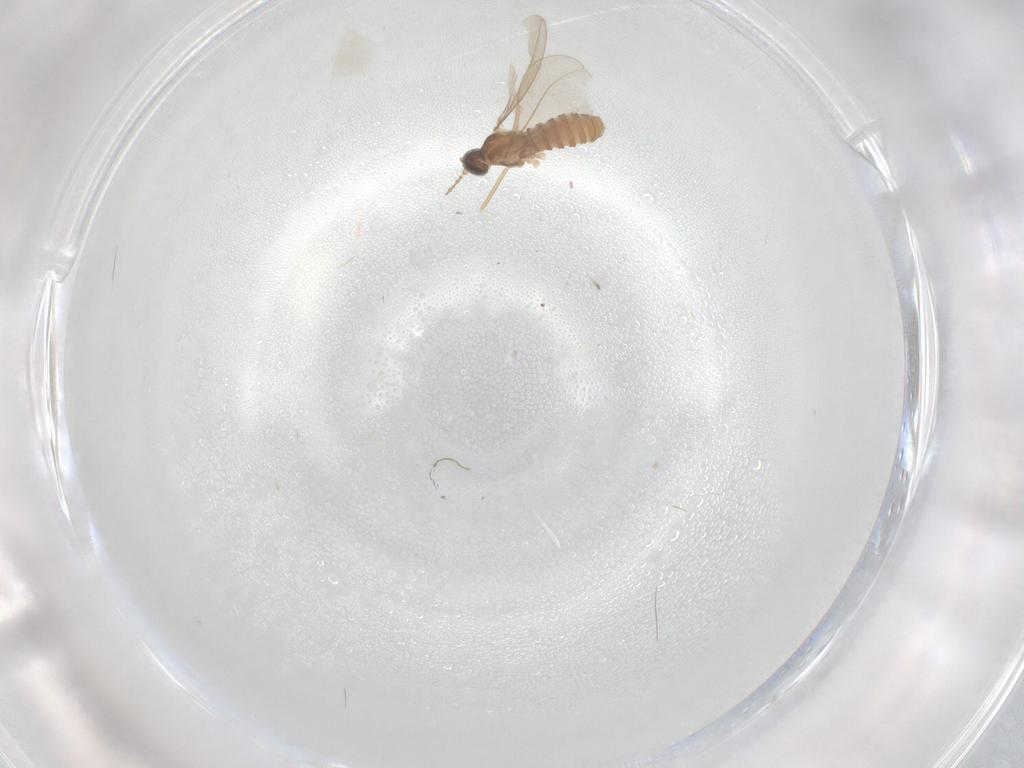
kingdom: Animalia
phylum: Arthropoda
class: Insecta
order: Diptera
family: Cecidomyiidae
